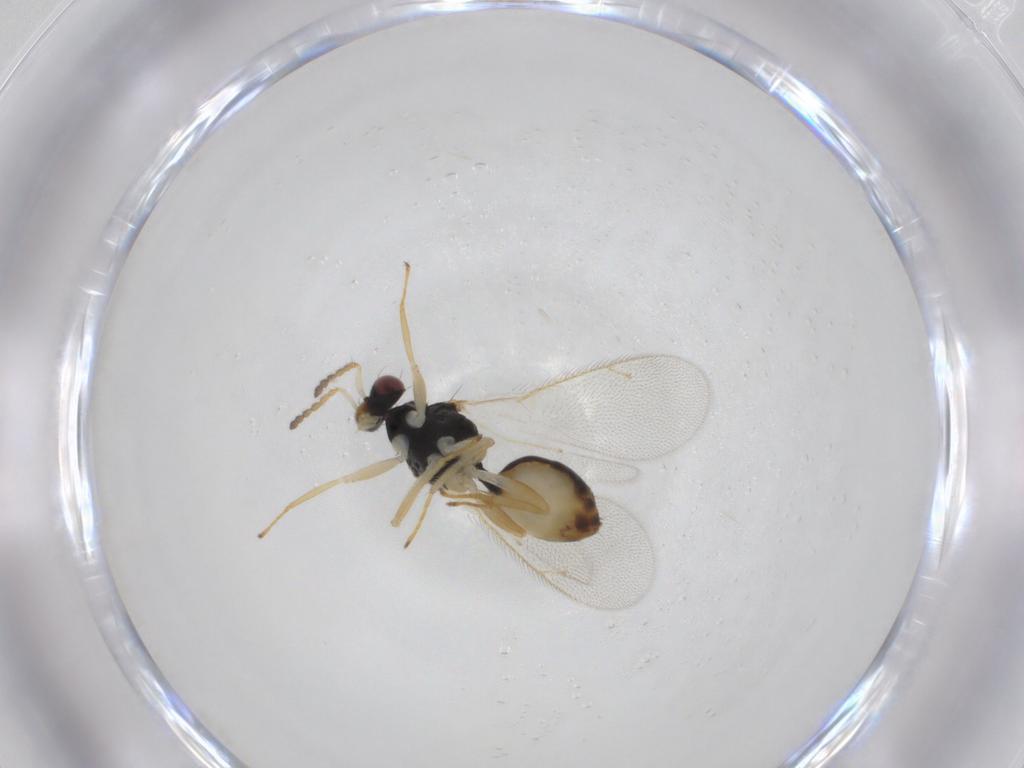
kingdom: Animalia
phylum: Arthropoda
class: Insecta
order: Hymenoptera
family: Eulophidae
